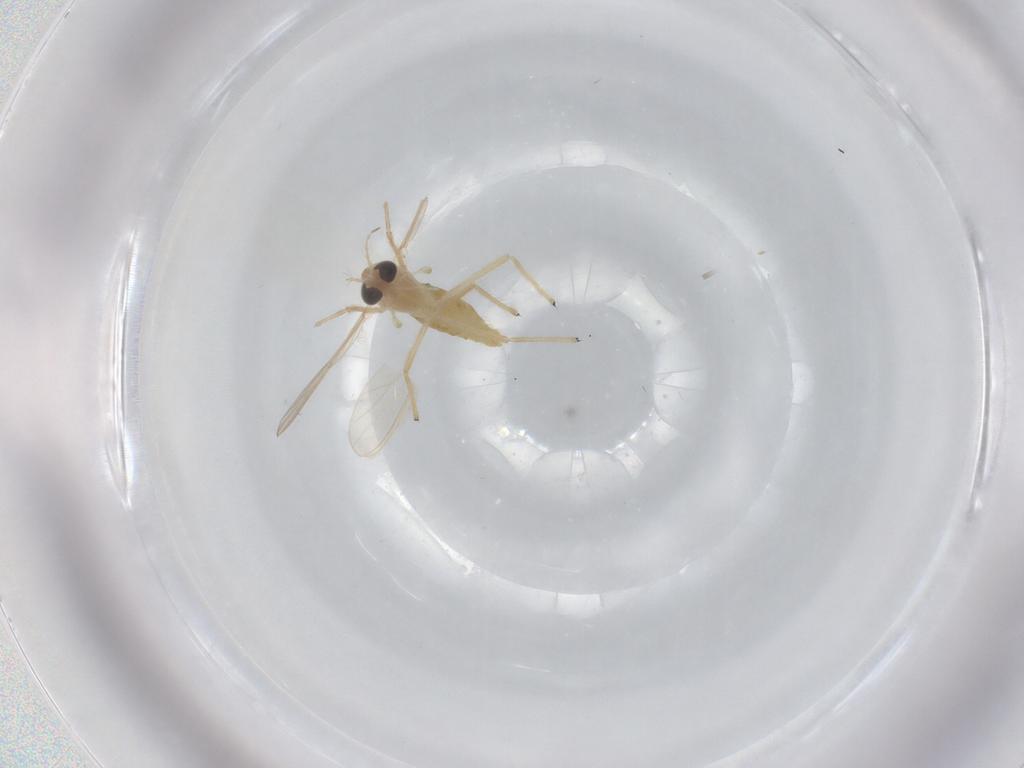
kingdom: Animalia
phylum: Arthropoda
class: Insecta
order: Diptera
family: Chironomidae
